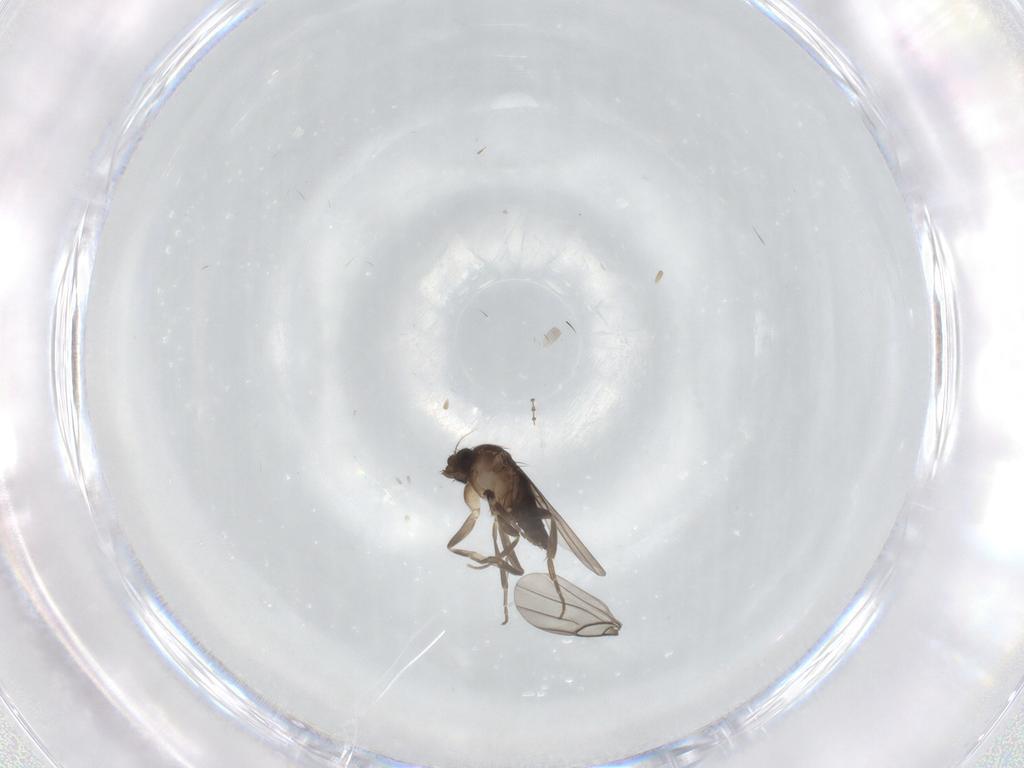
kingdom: Animalia
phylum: Arthropoda
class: Insecta
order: Diptera
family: Cecidomyiidae
